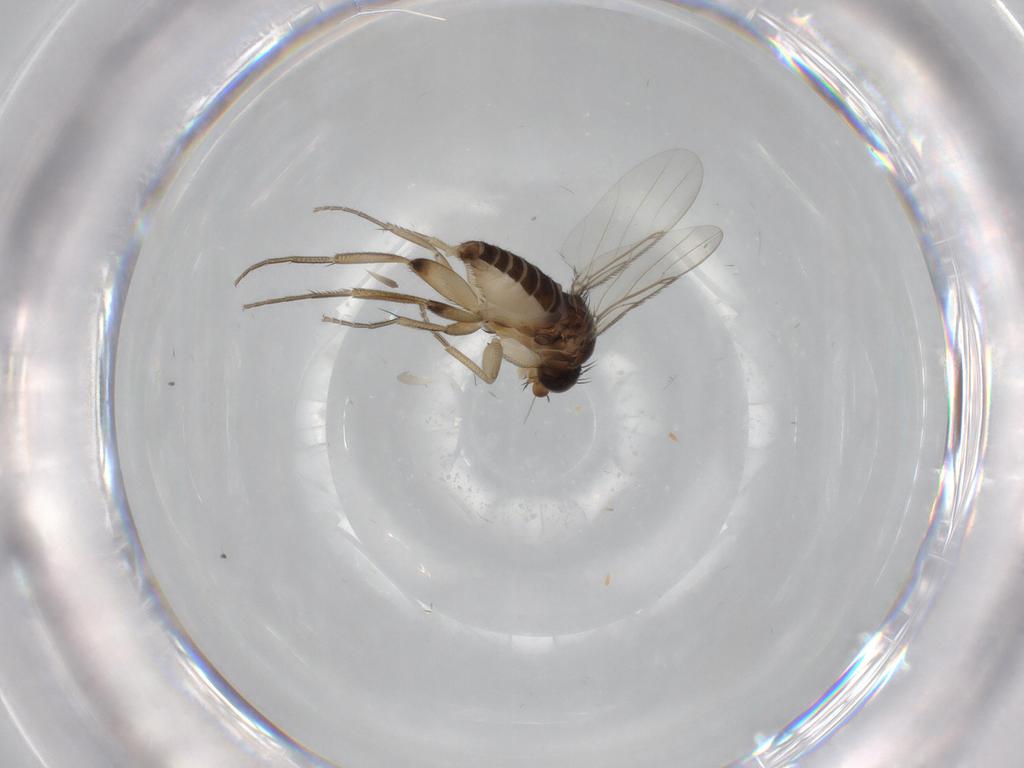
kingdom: Animalia
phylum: Arthropoda
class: Insecta
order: Diptera
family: Phoridae
